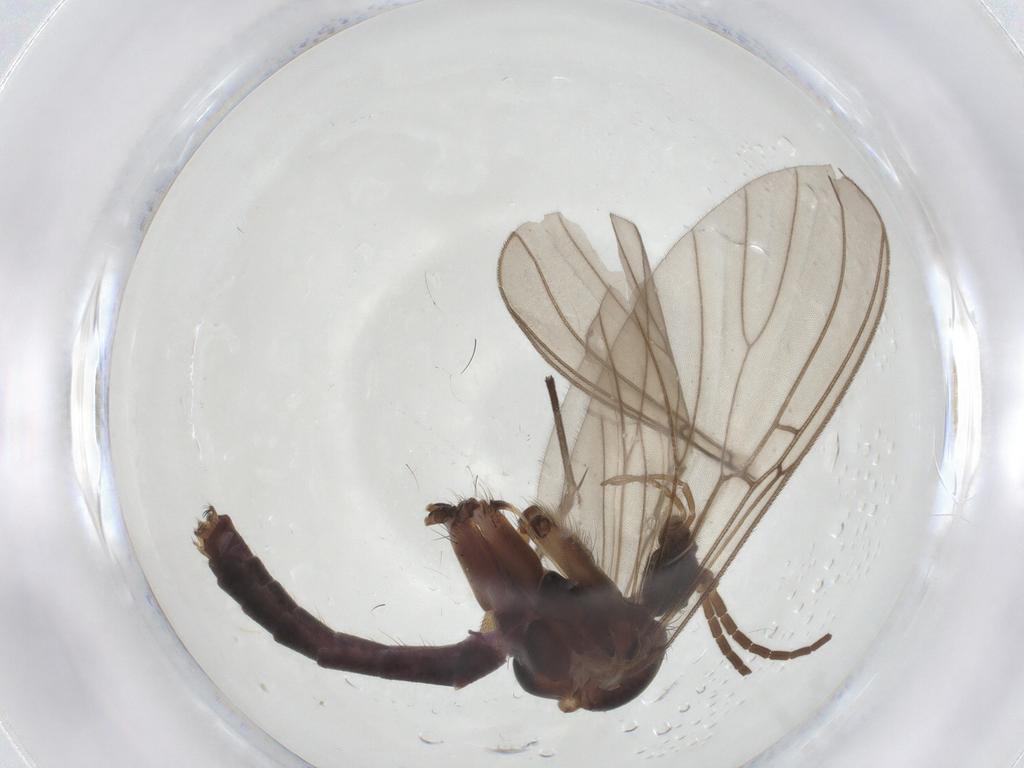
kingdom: Animalia
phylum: Arthropoda
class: Insecta
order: Diptera
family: Mycetophilidae
